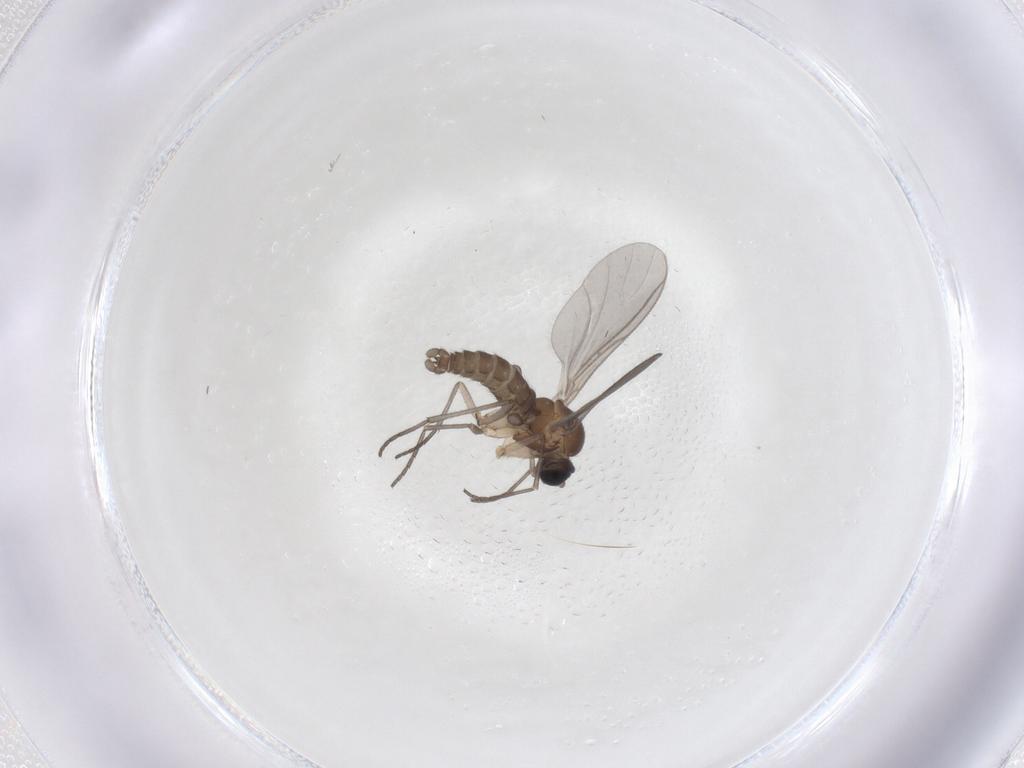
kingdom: Animalia
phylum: Arthropoda
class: Insecta
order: Diptera
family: Sciaridae
